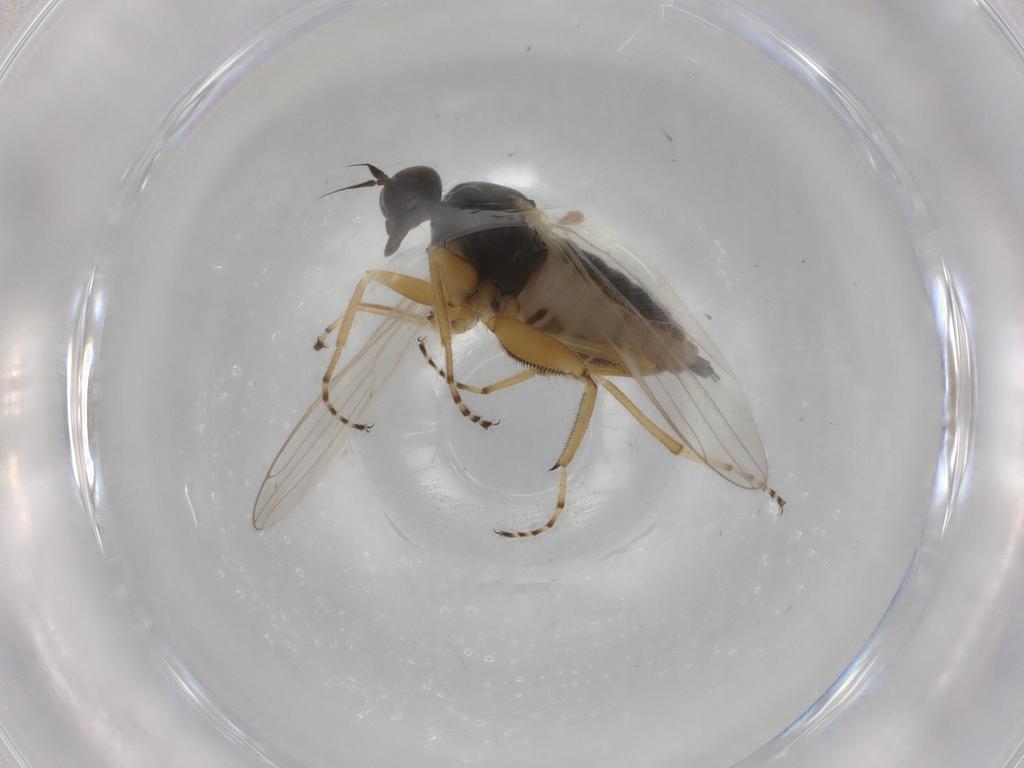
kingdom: Animalia
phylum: Arthropoda
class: Insecta
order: Diptera
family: Hybotidae
